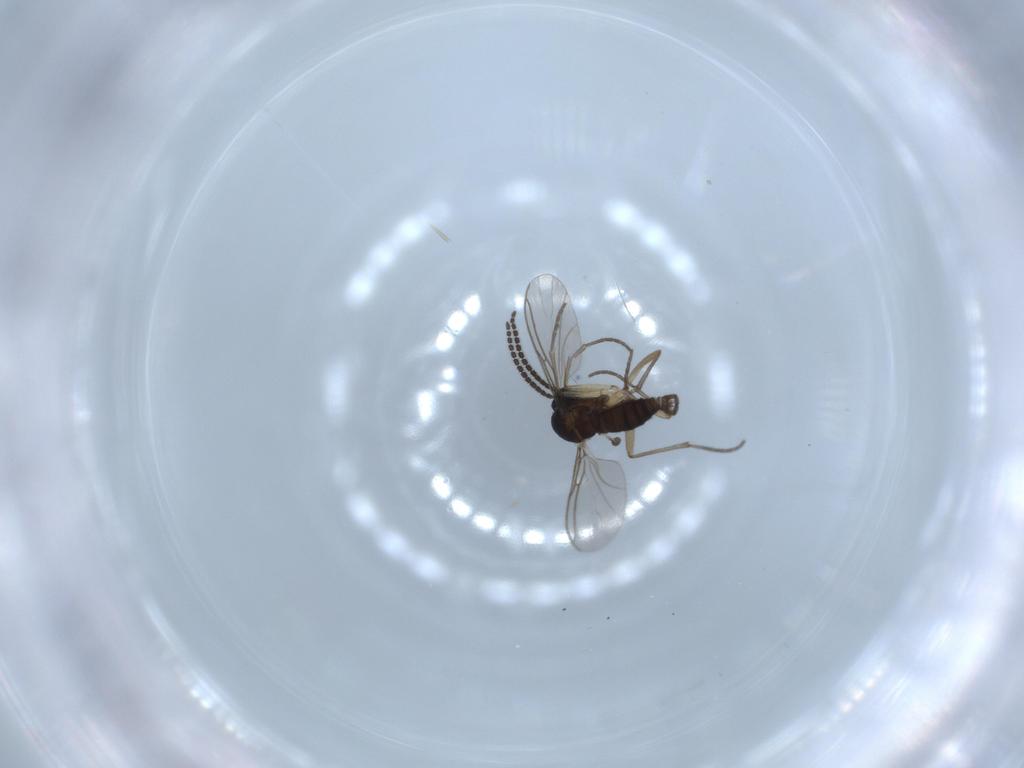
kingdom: Animalia
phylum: Arthropoda
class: Insecta
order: Diptera
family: Sciaridae
